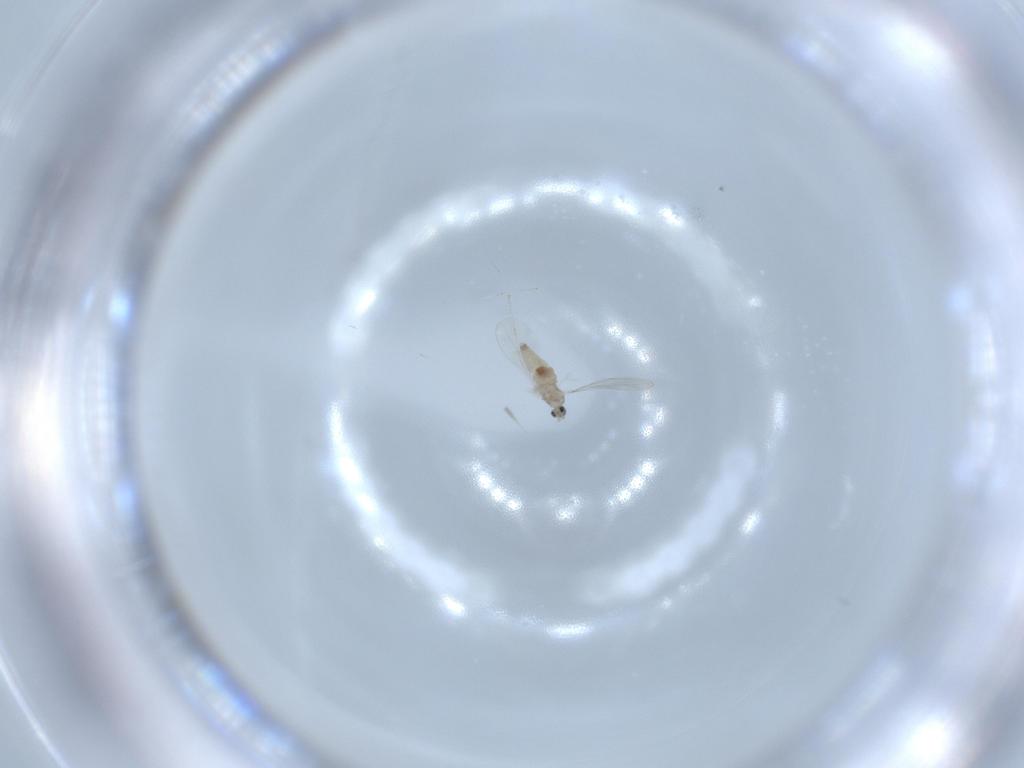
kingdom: Animalia
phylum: Arthropoda
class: Insecta
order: Diptera
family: Cecidomyiidae
